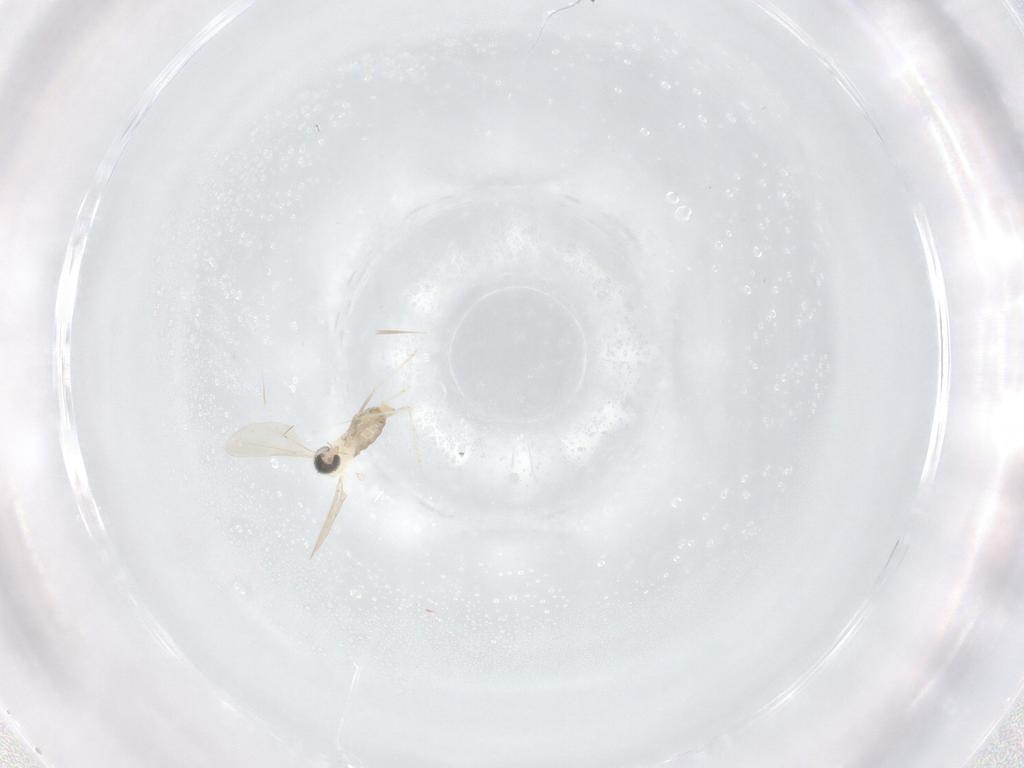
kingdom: Animalia
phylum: Arthropoda
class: Insecta
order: Diptera
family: Cecidomyiidae
